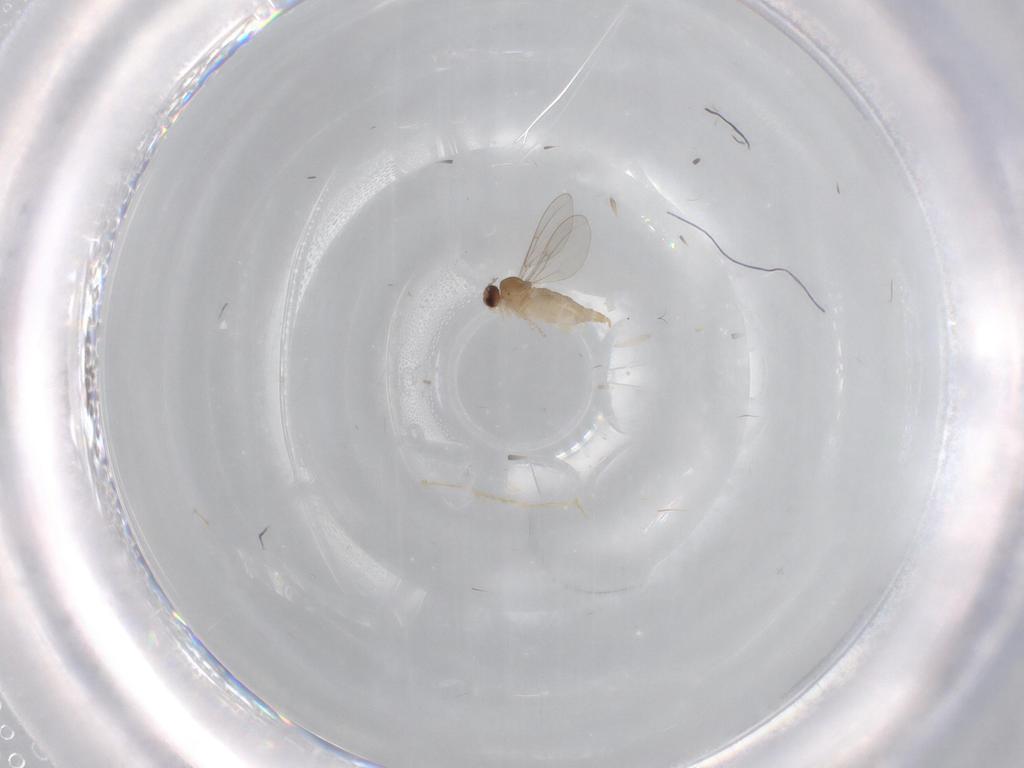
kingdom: Animalia
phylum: Arthropoda
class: Insecta
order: Diptera
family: Cecidomyiidae
